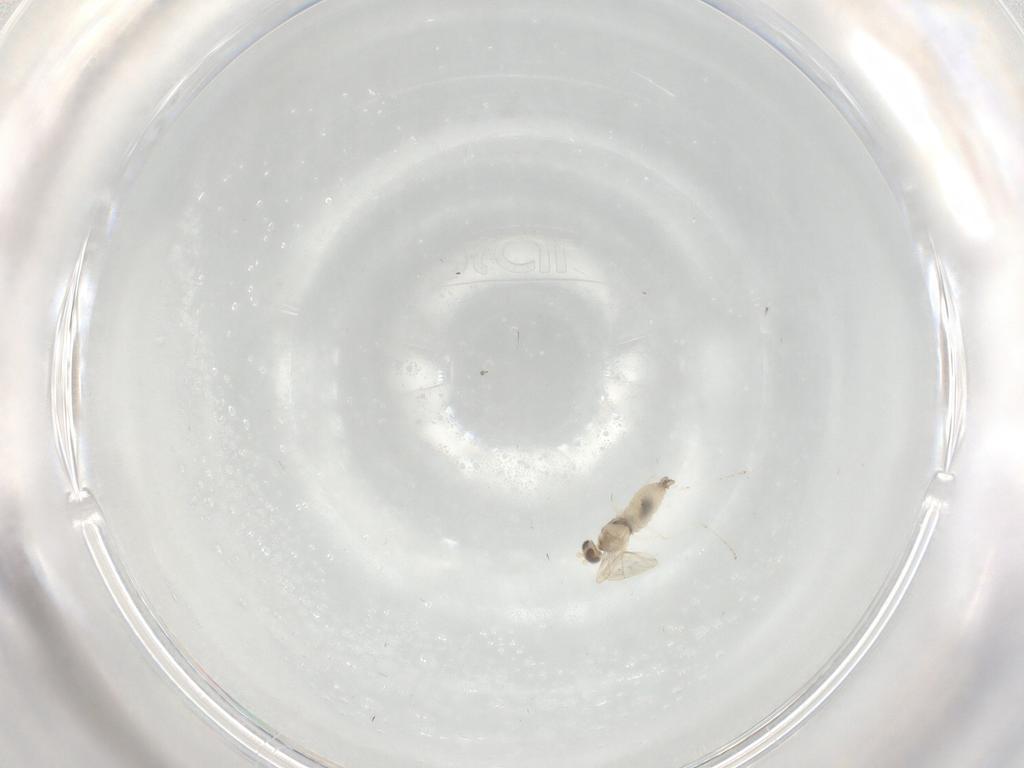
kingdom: Animalia
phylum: Arthropoda
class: Insecta
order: Diptera
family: Cecidomyiidae
